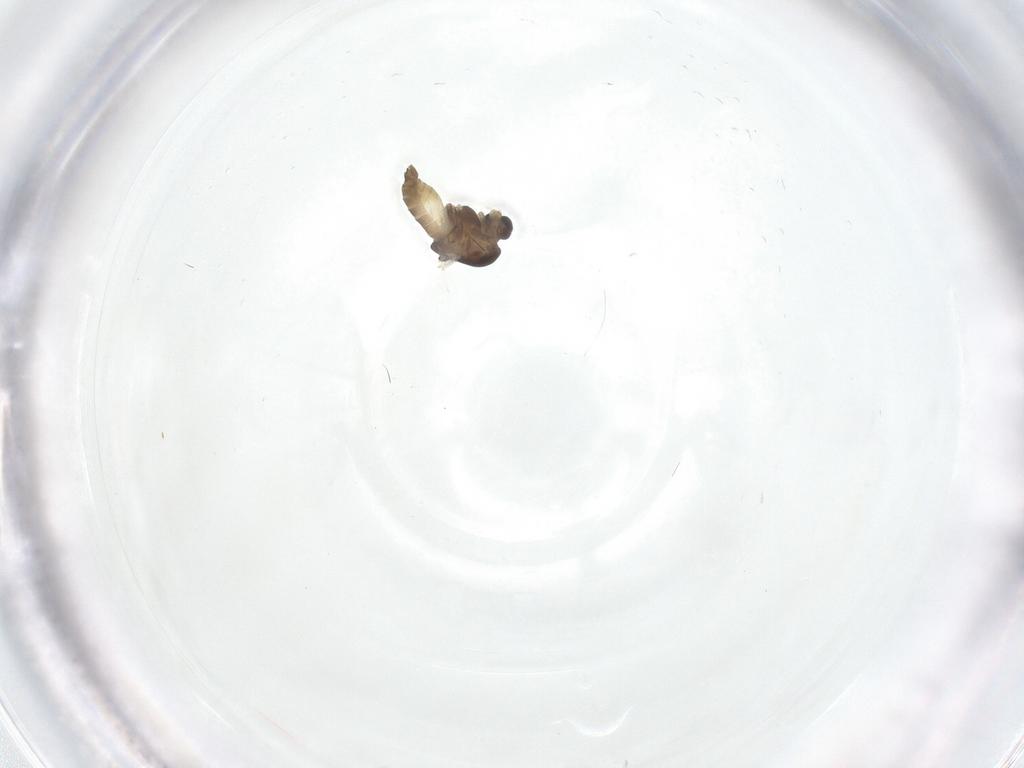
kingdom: Animalia
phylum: Arthropoda
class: Insecta
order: Diptera
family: Chironomidae
